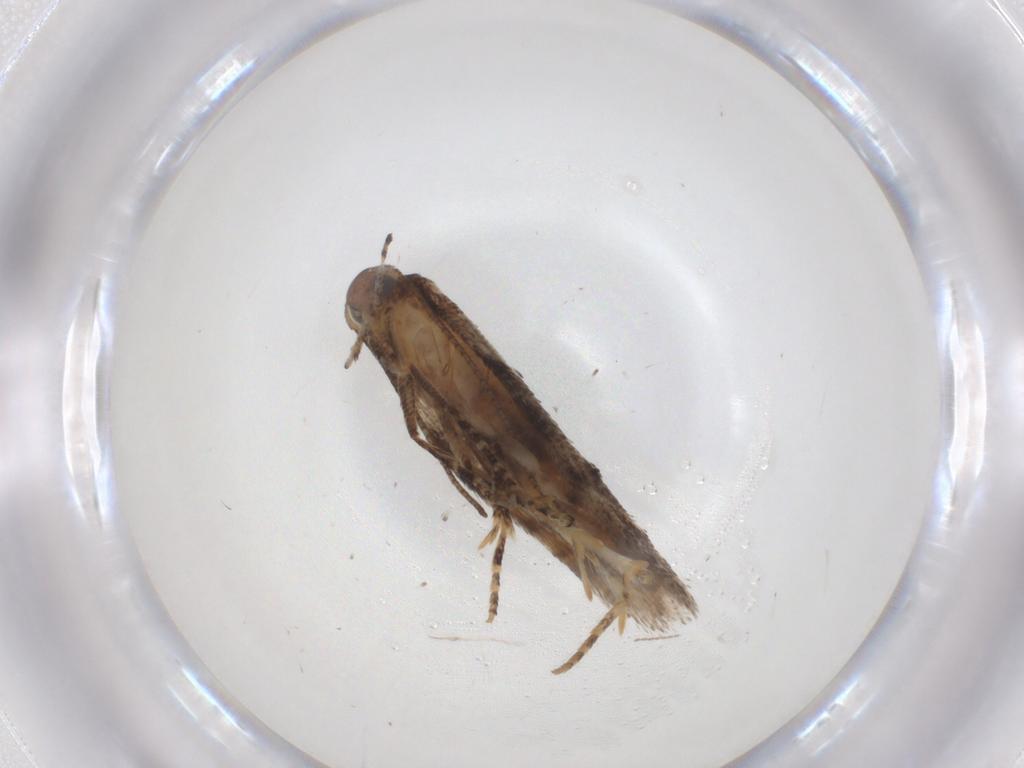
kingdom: Animalia
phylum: Arthropoda
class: Insecta
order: Lepidoptera
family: Gelechiidae
